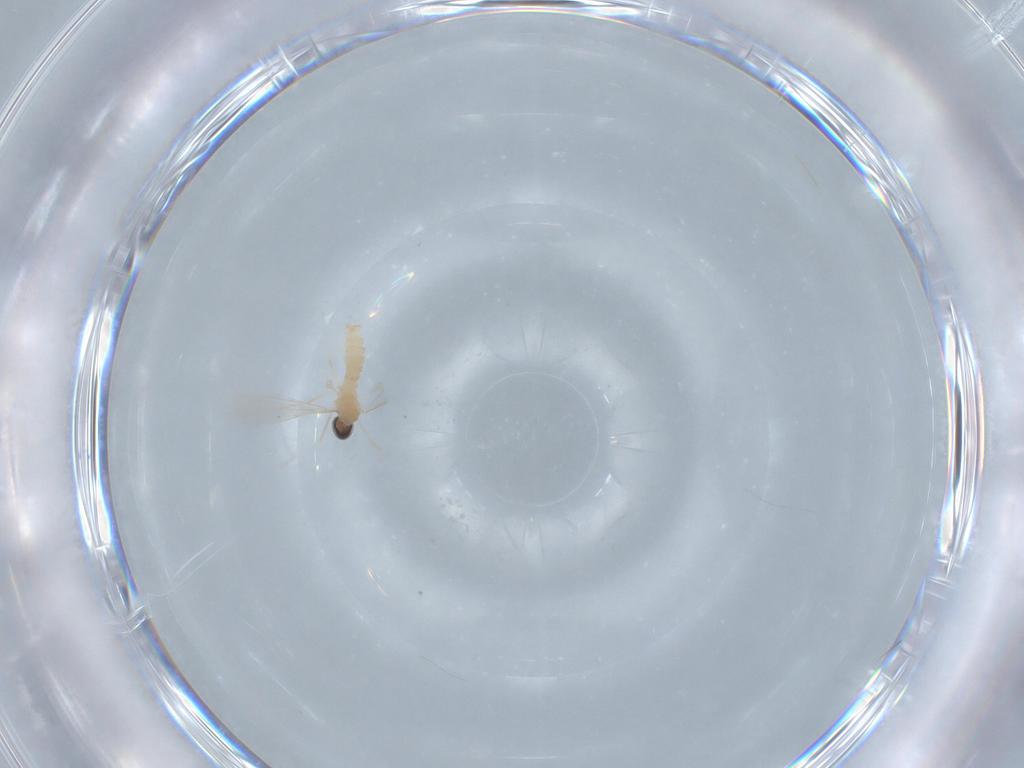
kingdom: Animalia
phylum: Arthropoda
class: Insecta
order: Diptera
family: Cecidomyiidae
